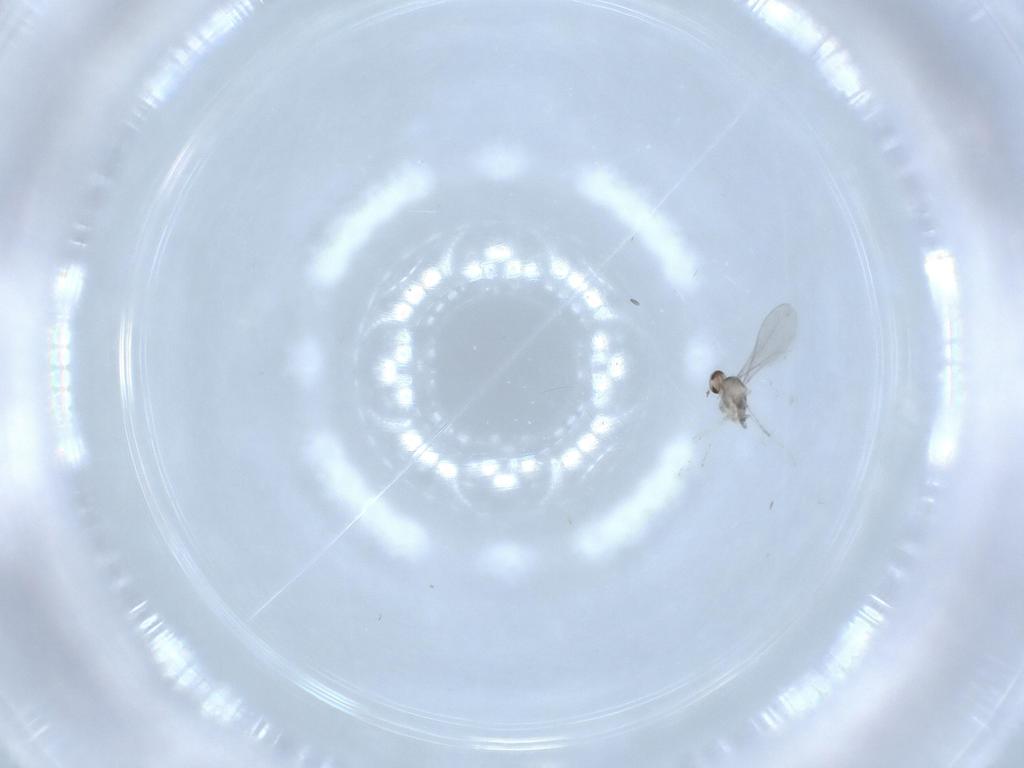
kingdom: Animalia
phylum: Arthropoda
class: Insecta
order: Diptera
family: Cecidomyiidae
